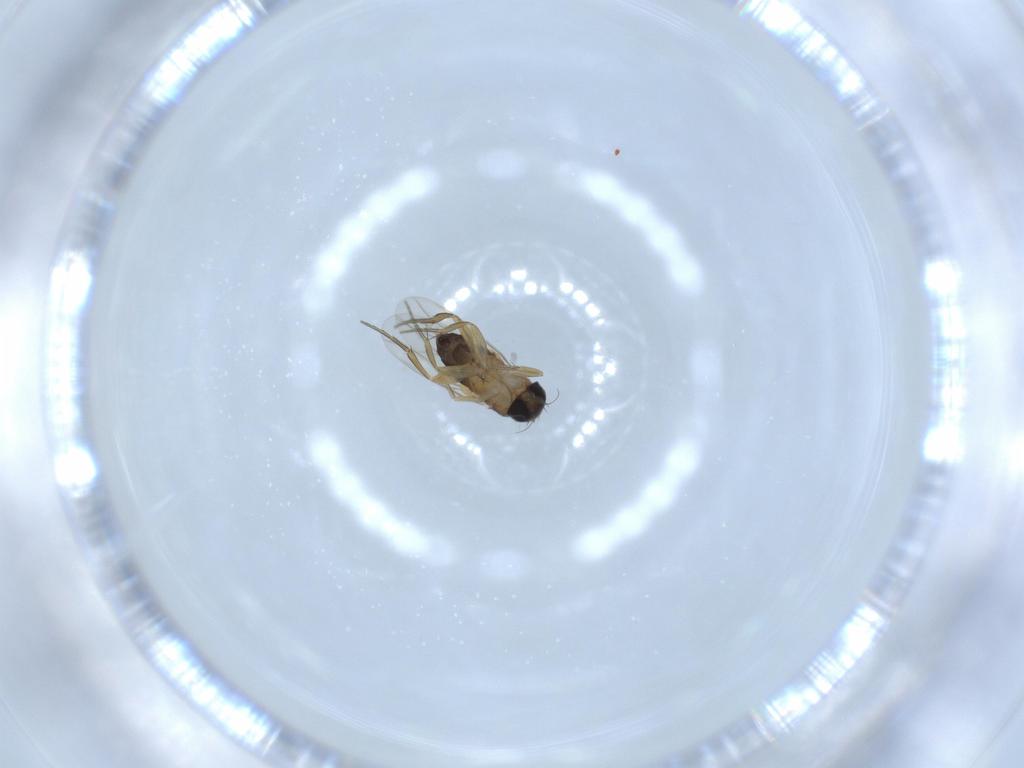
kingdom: Animalia
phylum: Arthropoda
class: Insecta
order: Diptera
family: Phoridae
